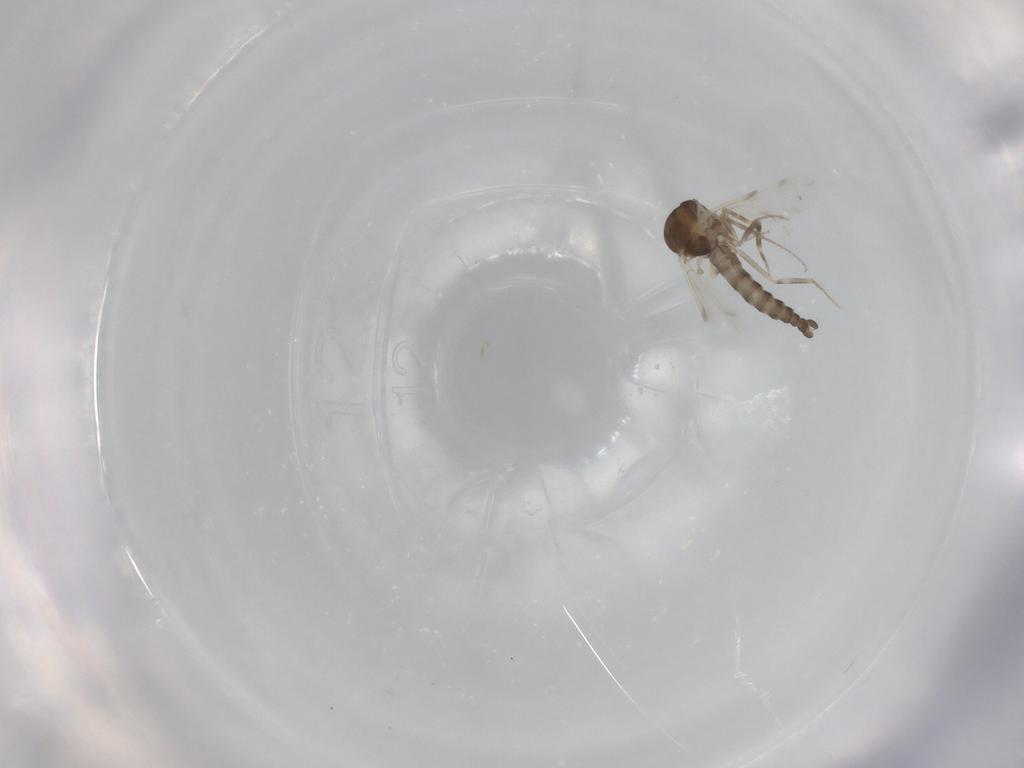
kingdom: Animalia
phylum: Arthropoda
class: Insecta
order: Diptera
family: Ceratopogonidae
